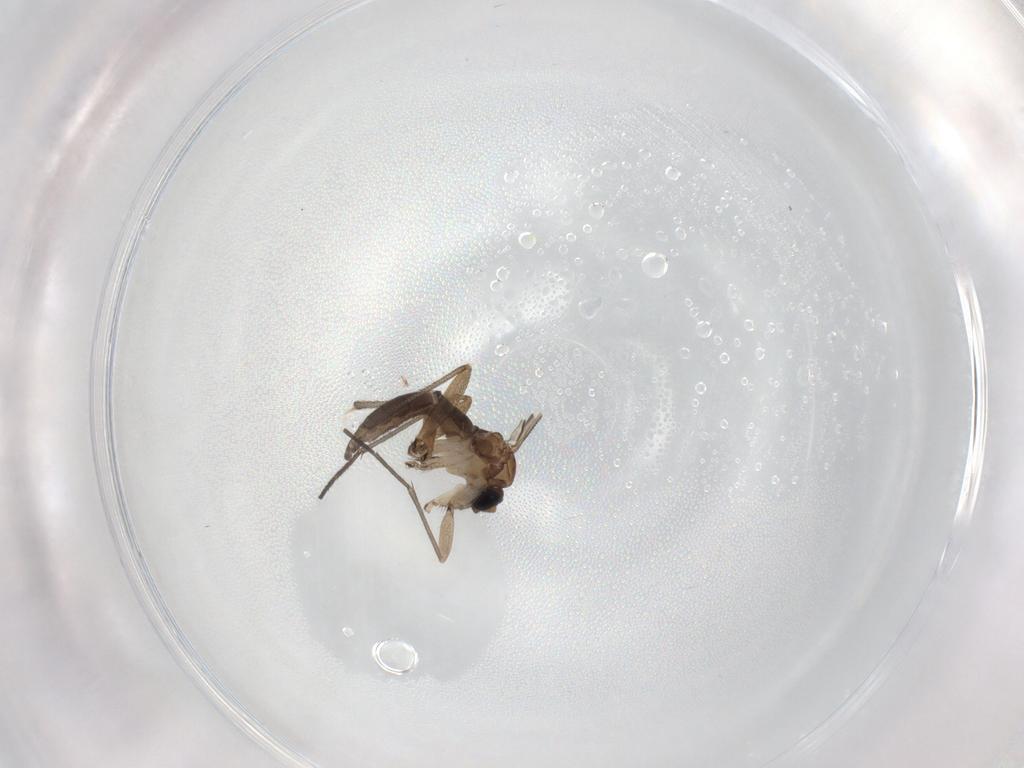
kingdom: Animalia
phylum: Arthropoda
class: Insecta
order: Diptera
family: Sciaridae
